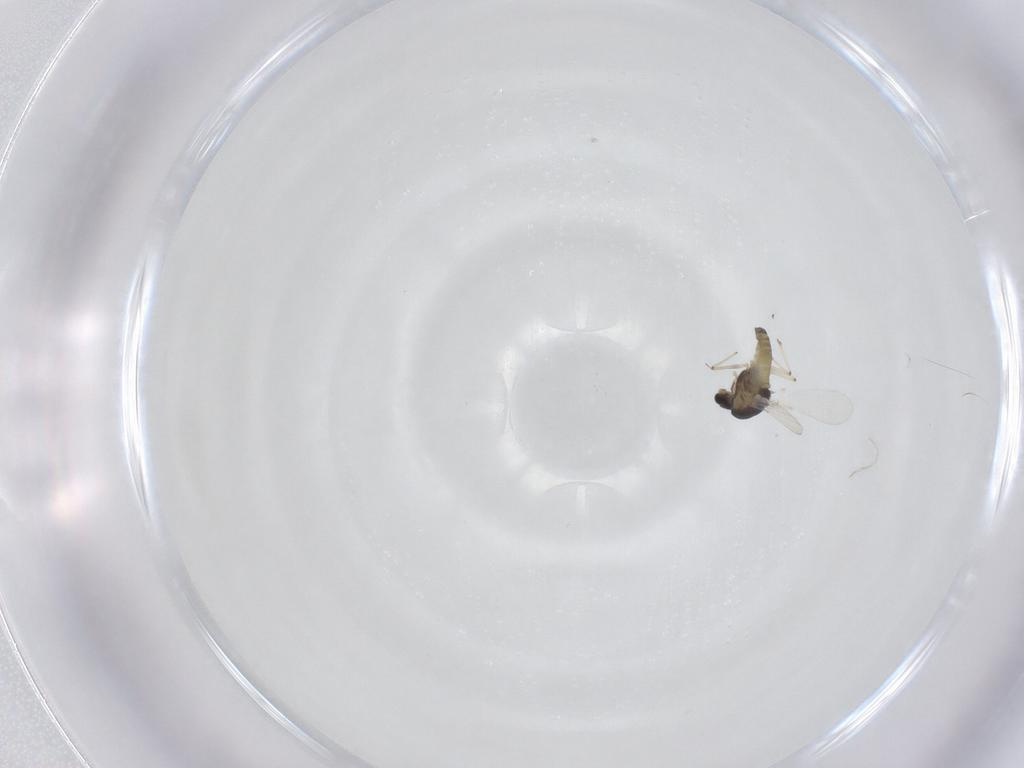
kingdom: Animalia
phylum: Arthropoda
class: Insecta
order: Diptera
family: Chironomidae
